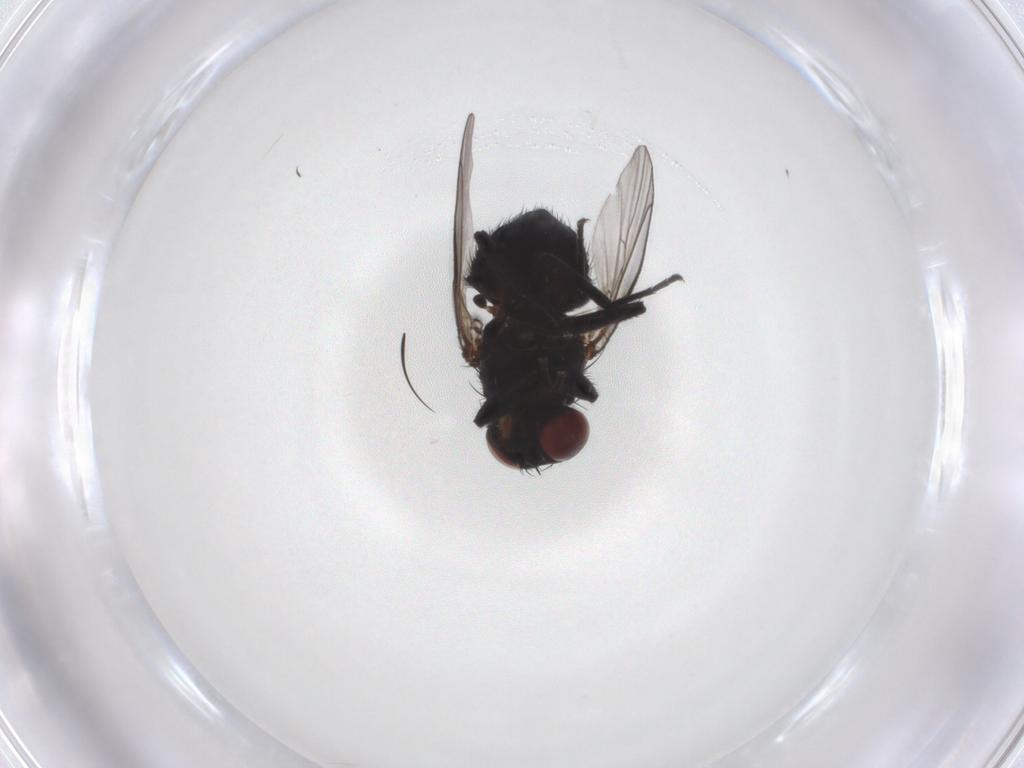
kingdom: Animalia
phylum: Arthropoda
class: Insecta
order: Diptera
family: Agromyzidae
